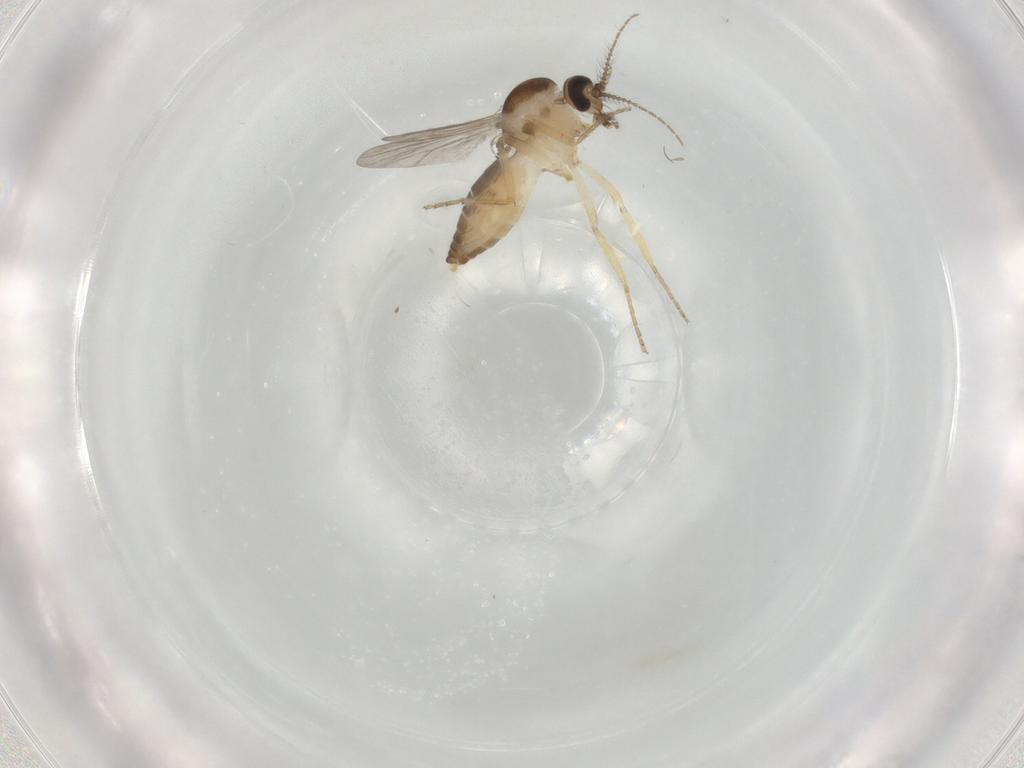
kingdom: Animalia
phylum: Arthropoda
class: Insecta
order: Diptera
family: Ceratopogonidae
